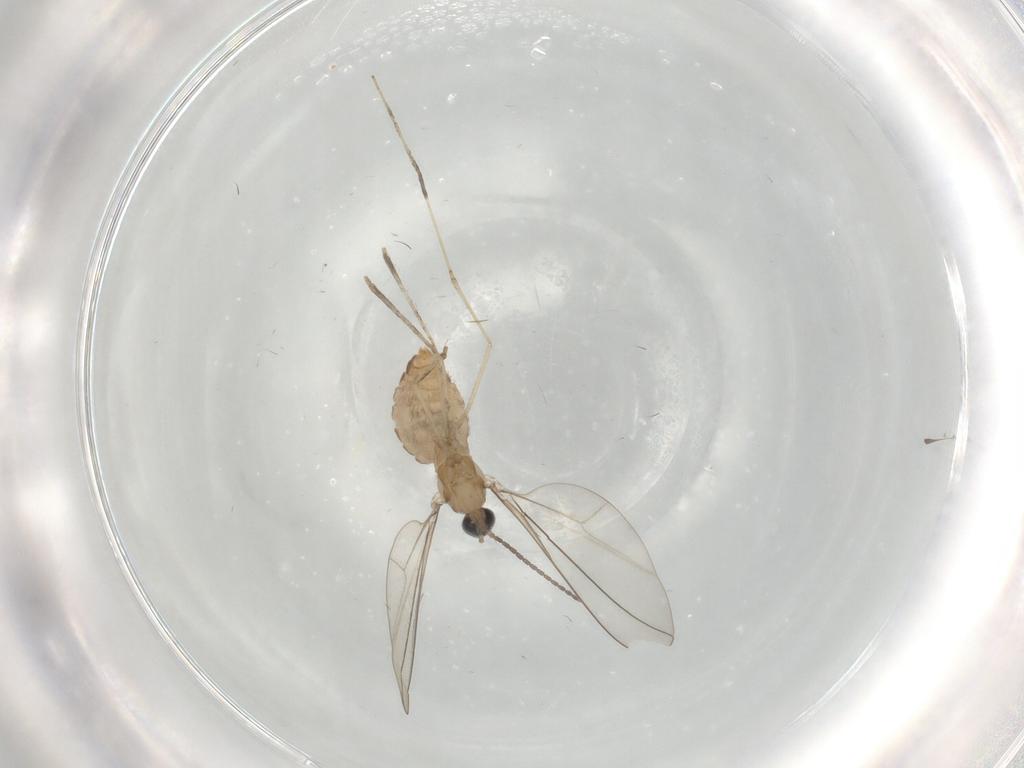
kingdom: Animalia
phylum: Arthropoda
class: Insecta
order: Diptera
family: Cecidomyiidae
